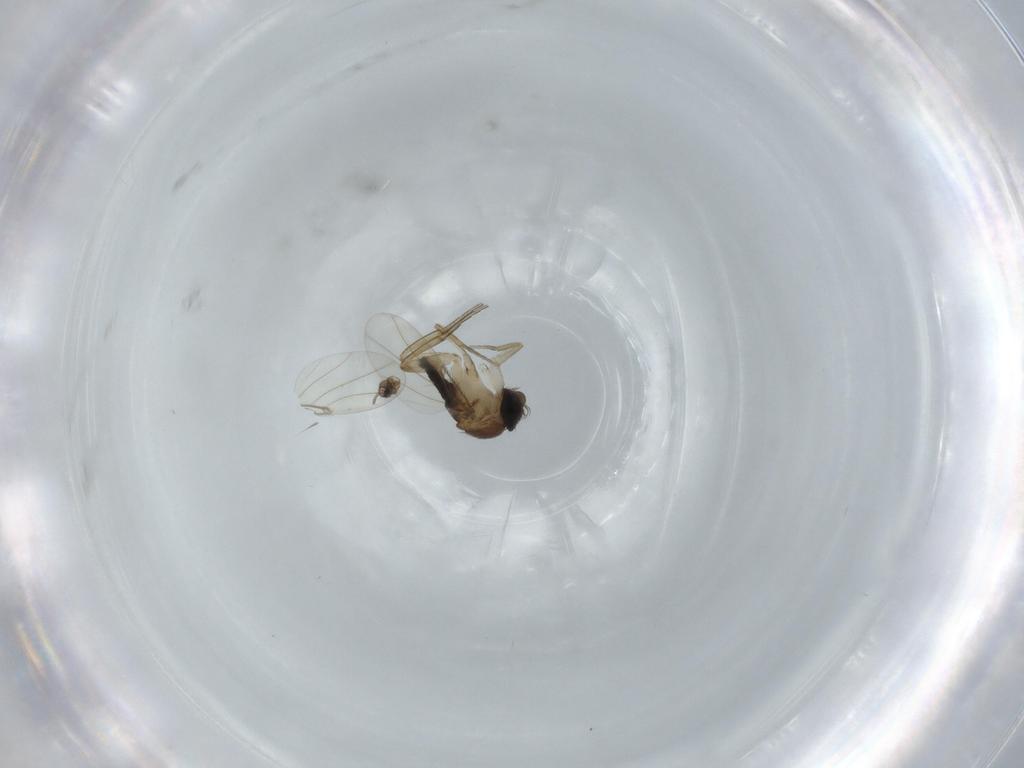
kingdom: Animalia
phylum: Arthropoda
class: Insecta
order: Diptera
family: Phoridae
